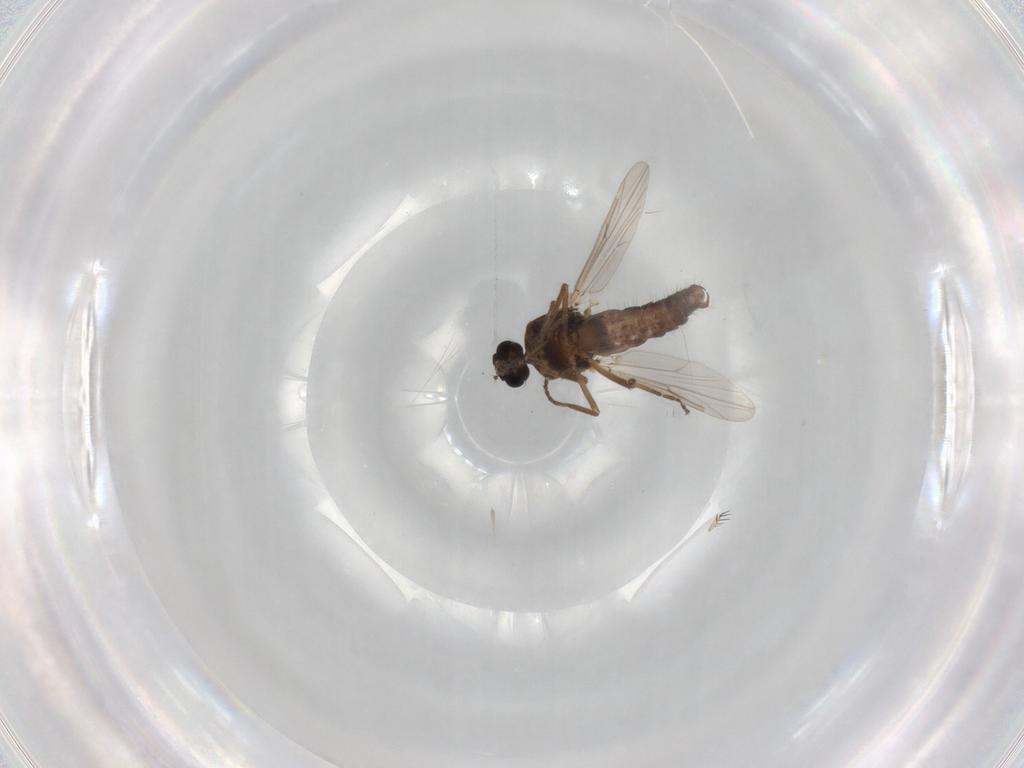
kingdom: Animalia
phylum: Arthropoda
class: Insecta
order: Diptera
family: Ceratopogonidae
